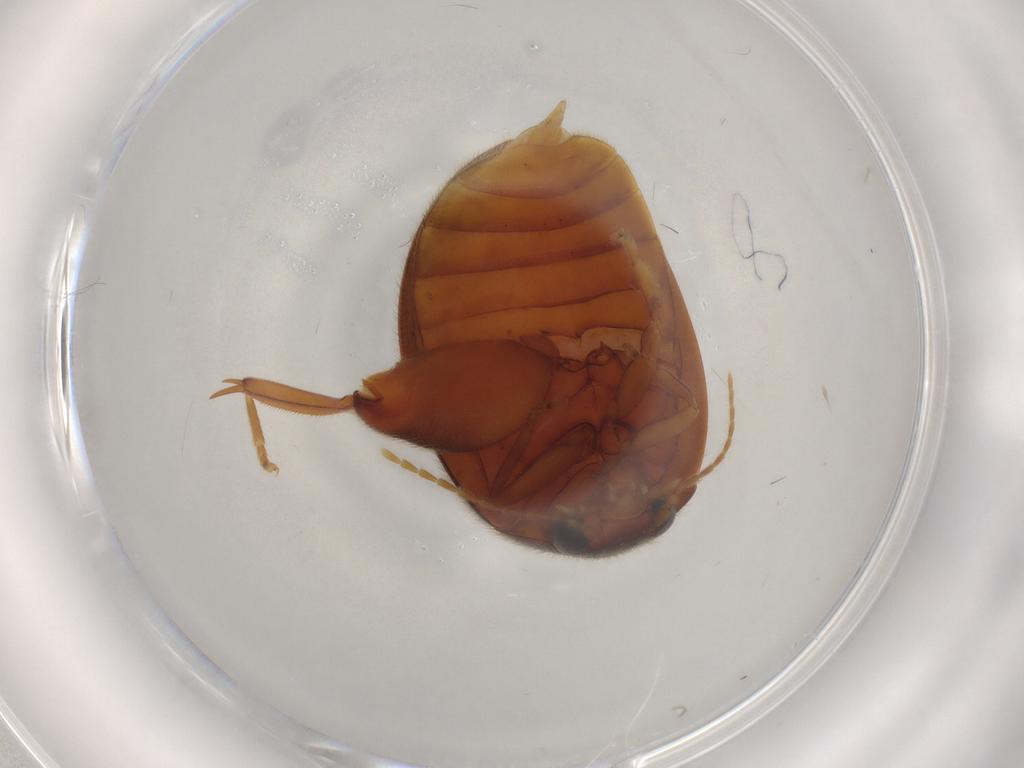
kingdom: Animalia
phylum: Arthropoda
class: Insecta
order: Coleoptera
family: Scirtidae
